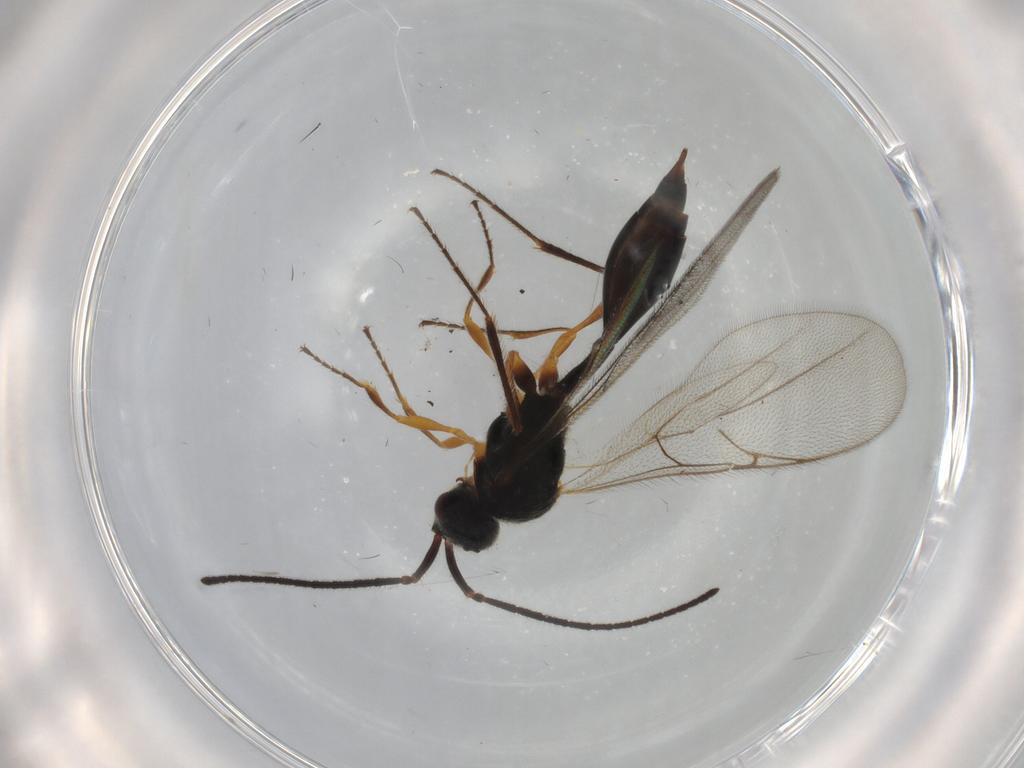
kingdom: Animalia
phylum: Arthropoda
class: Insecta
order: Hymenoptera
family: Diapriidae
